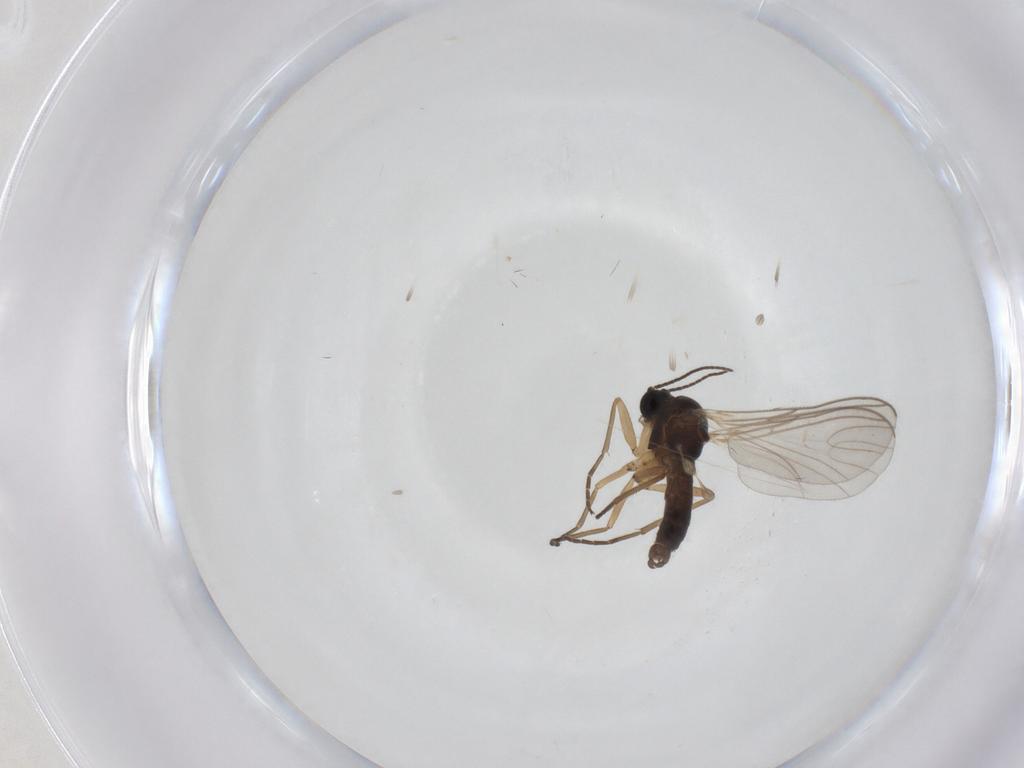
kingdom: Animalia
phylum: Arthropoda
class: Insecta
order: Diptera
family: Sciaridae
